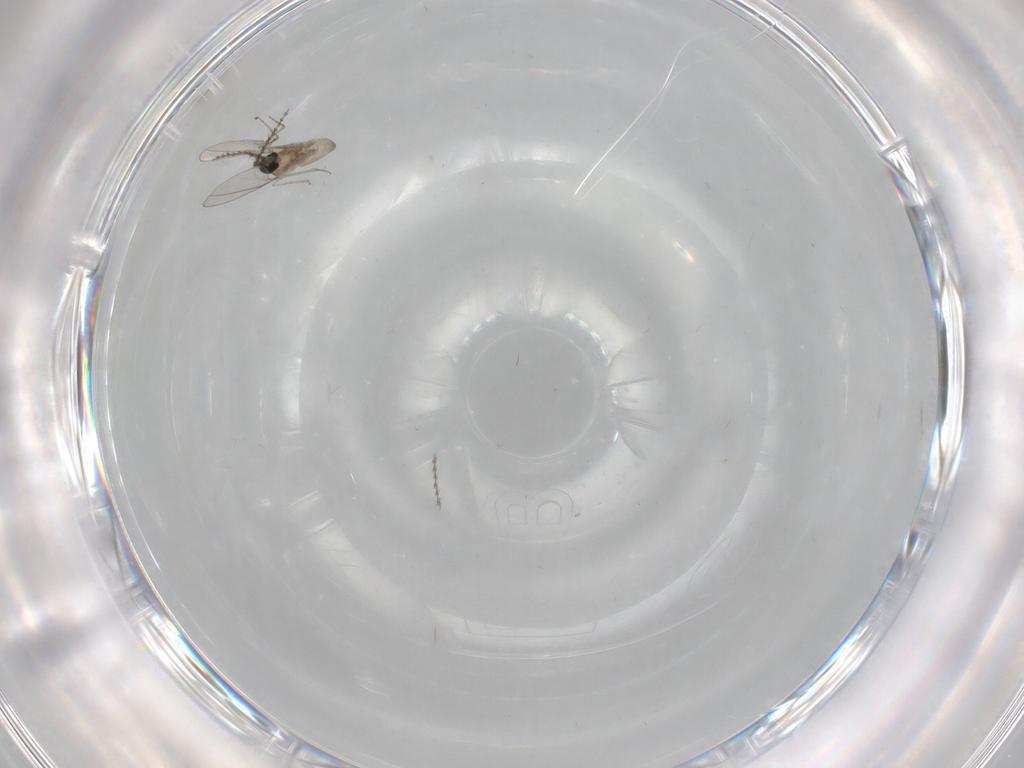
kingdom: Animalia
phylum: Arthropoda
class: Insecta
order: Diptera
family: Cecidomyiidae
